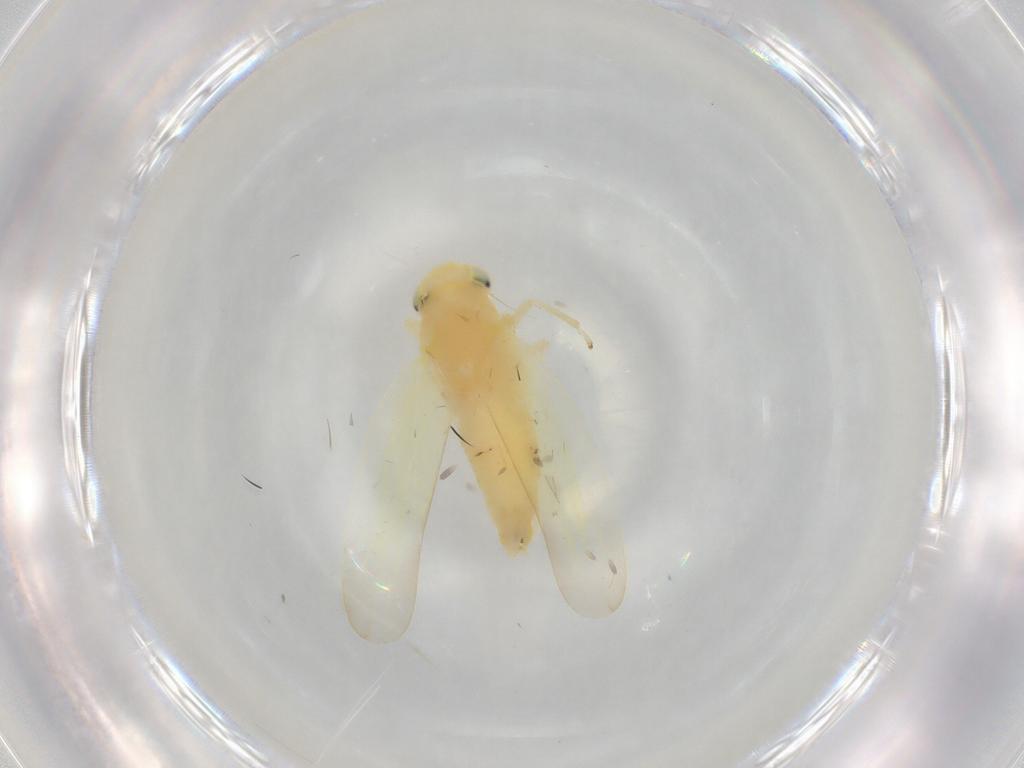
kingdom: Animalia
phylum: Arthropoda
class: Insecta
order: Hemiptera
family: Cicadellidae
